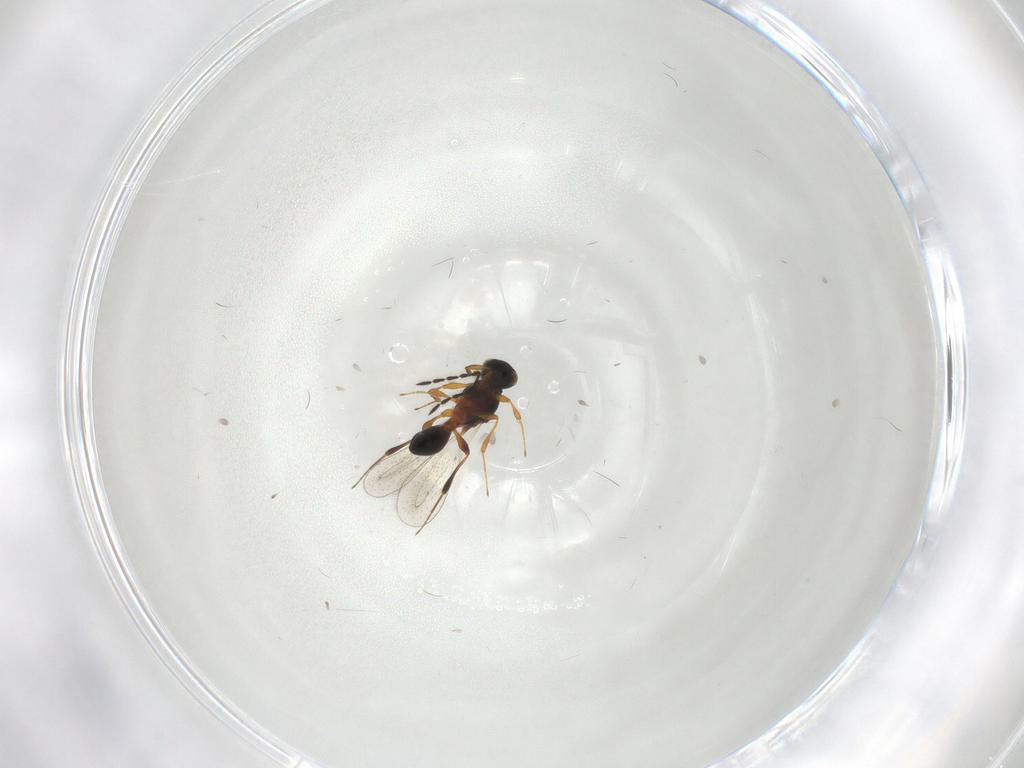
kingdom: Animalia
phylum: Arthropoda
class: Insecta
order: Hymenoptera
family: Platygastridae
